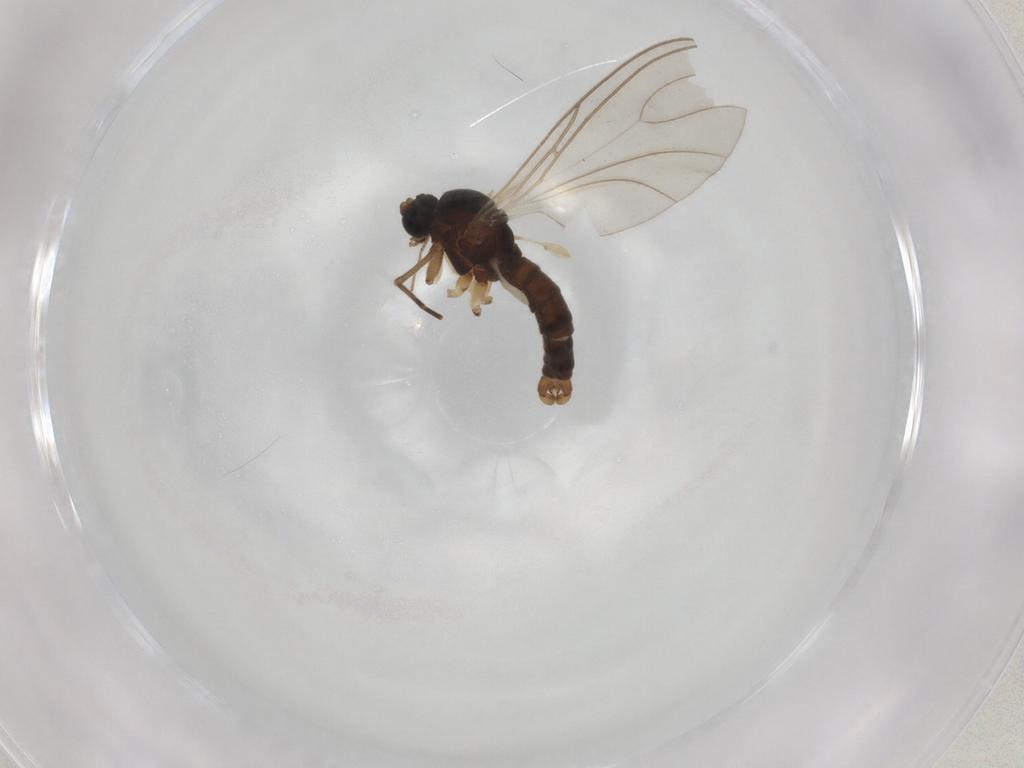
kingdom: Animalia
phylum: Arthropoda
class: Insecta
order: Diptera
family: Sciaridae
